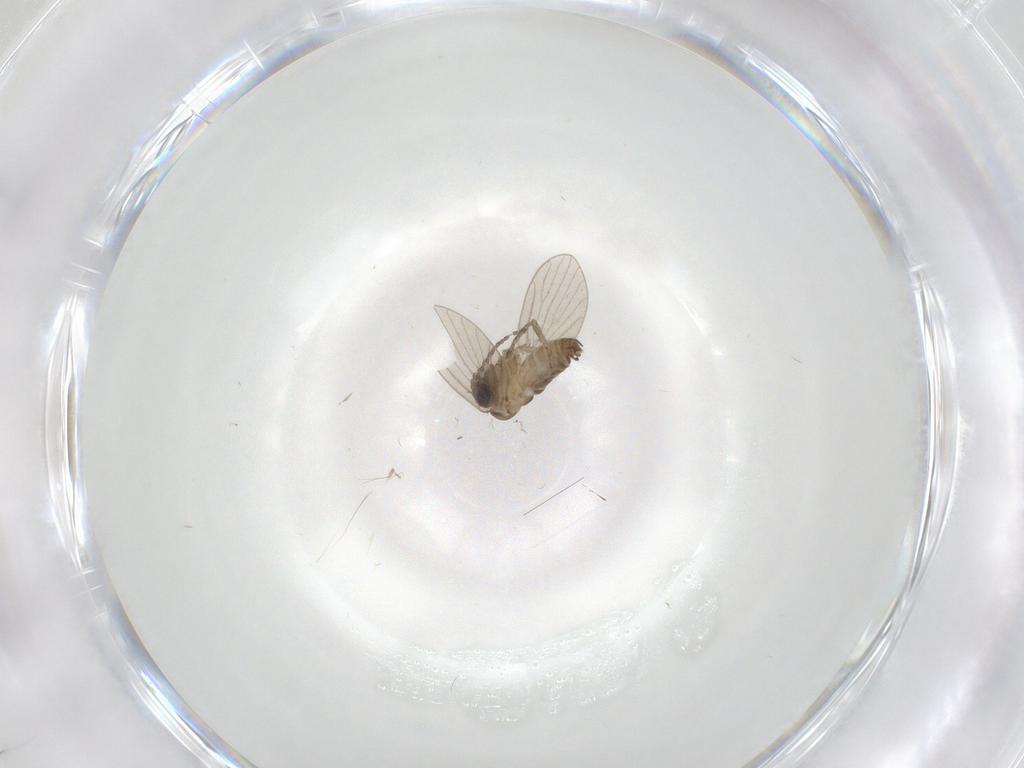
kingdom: Animalia
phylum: Arthropoda
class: Insecta
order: Diptera
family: Psychodidae
